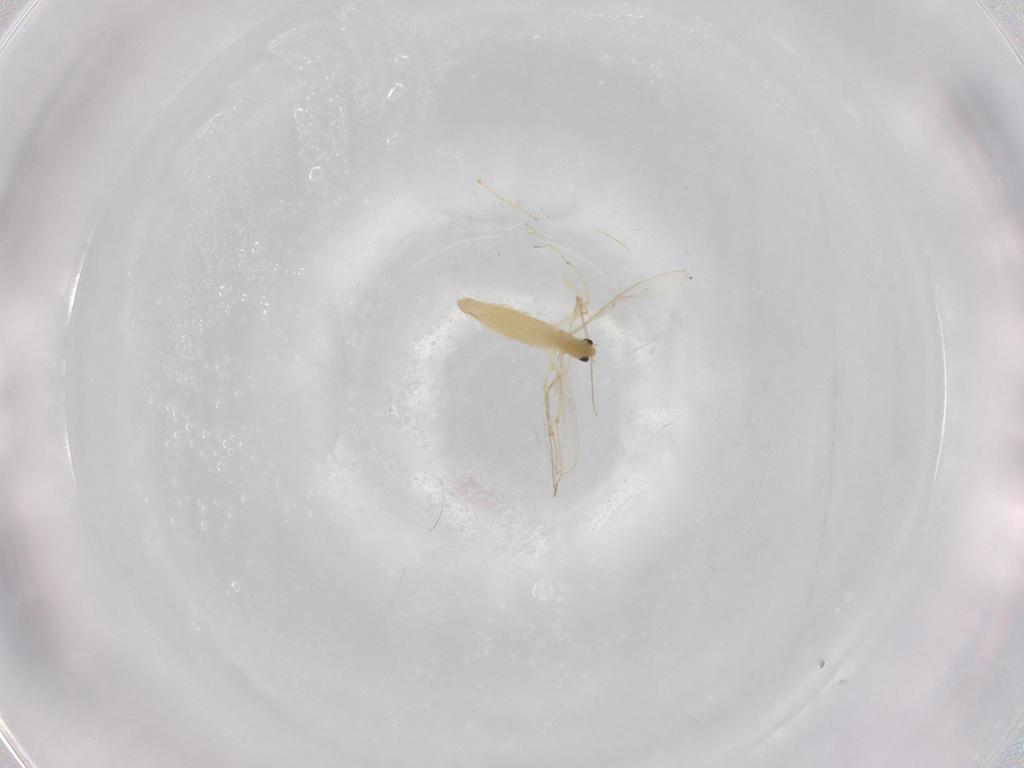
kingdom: Animalia
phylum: Arthropoda
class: Insecta
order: Diptera
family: Chironomidae
